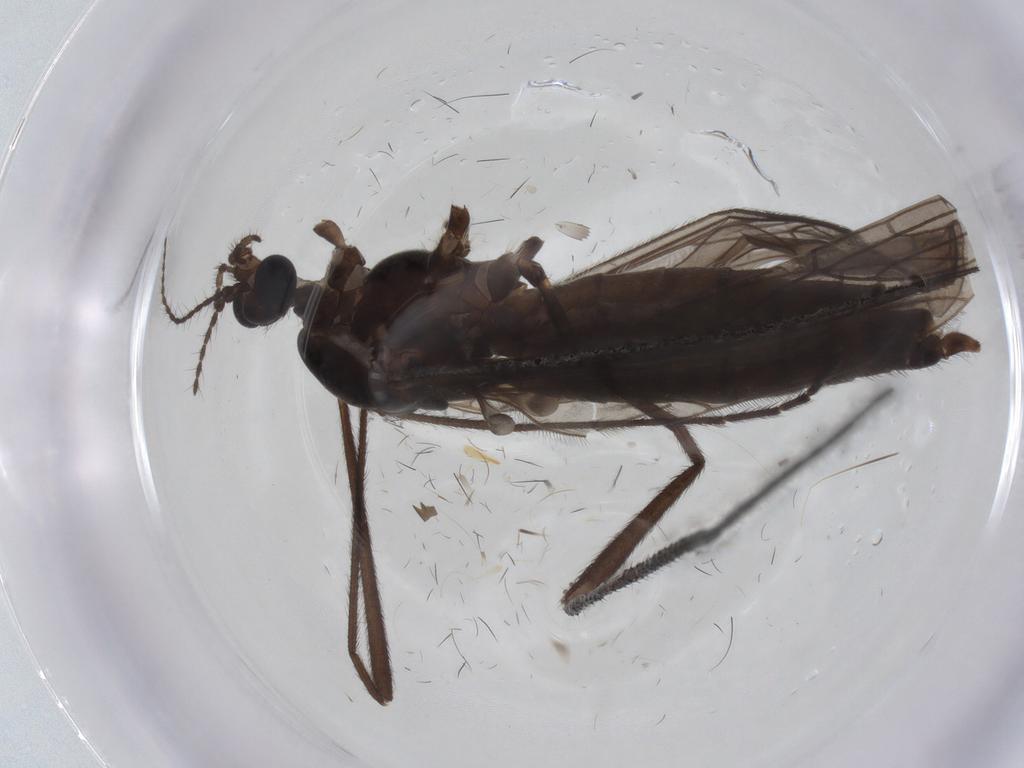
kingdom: Animalia
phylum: Arthropoda
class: Insecta
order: Diptera
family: Limoniidae
